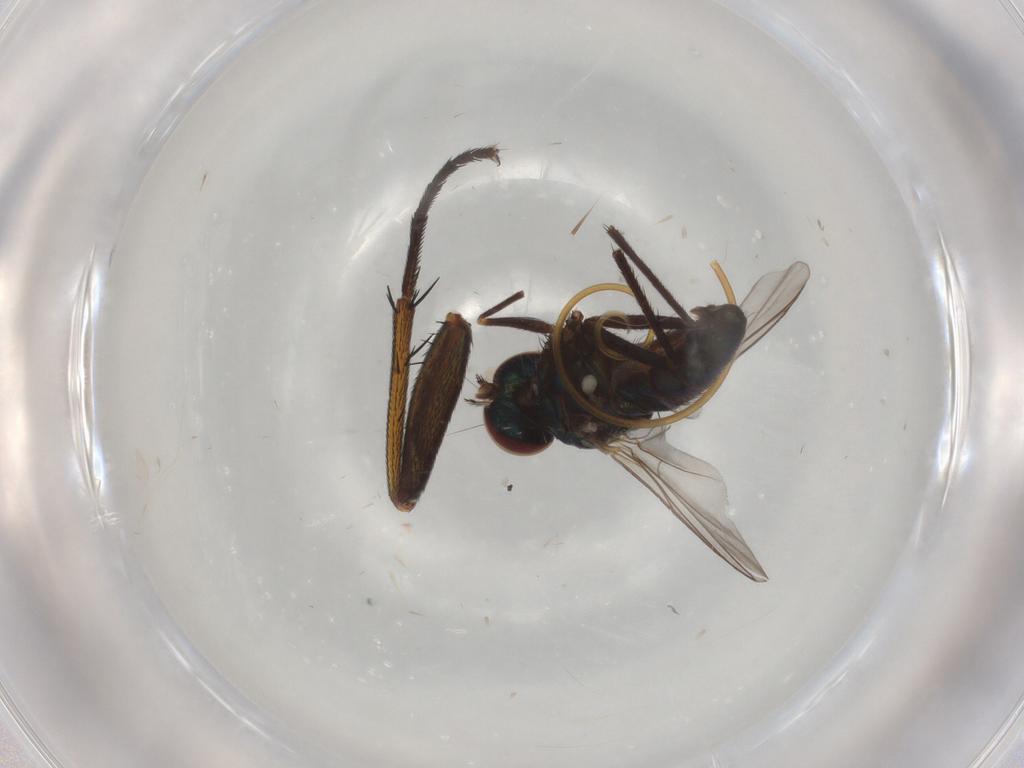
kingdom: Animalia
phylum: Arthropoda
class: Insecta
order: Diptera
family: Dolichopodidae
